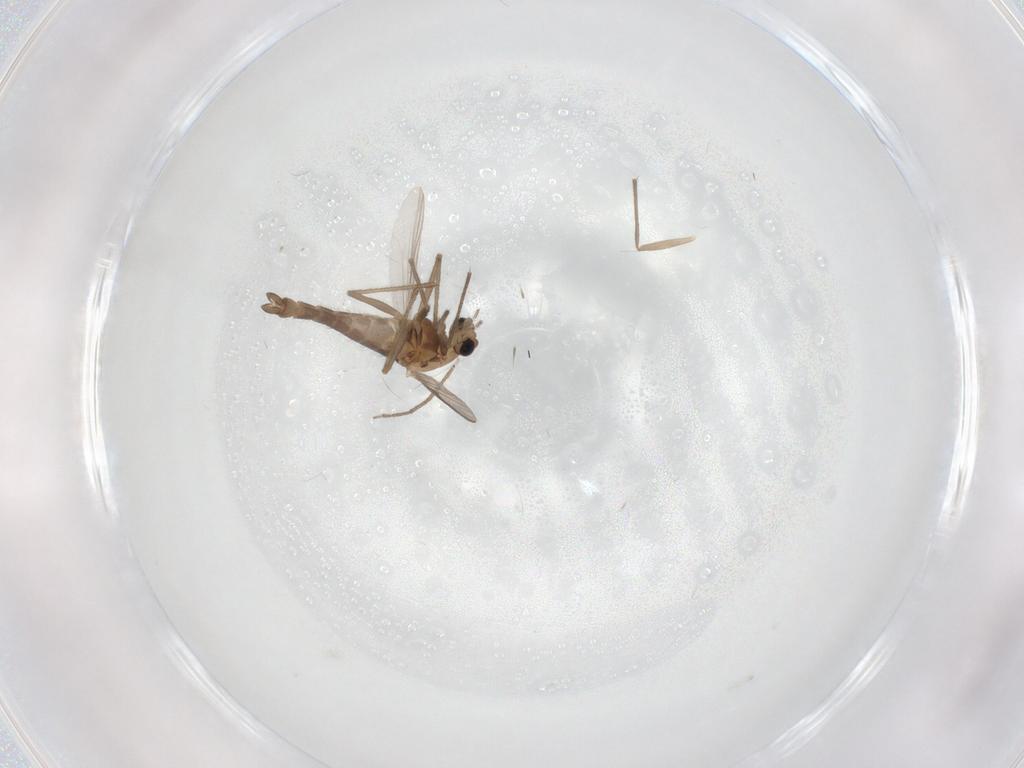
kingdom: Animalia
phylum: Arthropoda
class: Insecta
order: Diptera
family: Chironomidae
